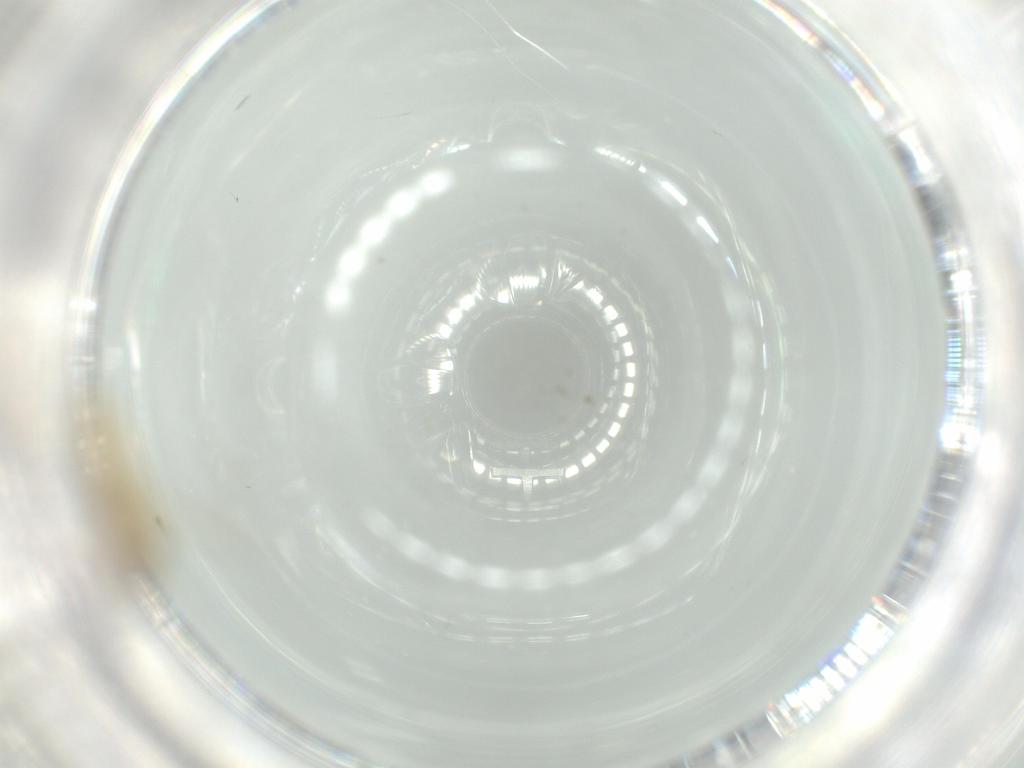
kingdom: Animalia
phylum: Arthropoda
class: Insecta
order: Diptera
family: Cecidomyiidae
